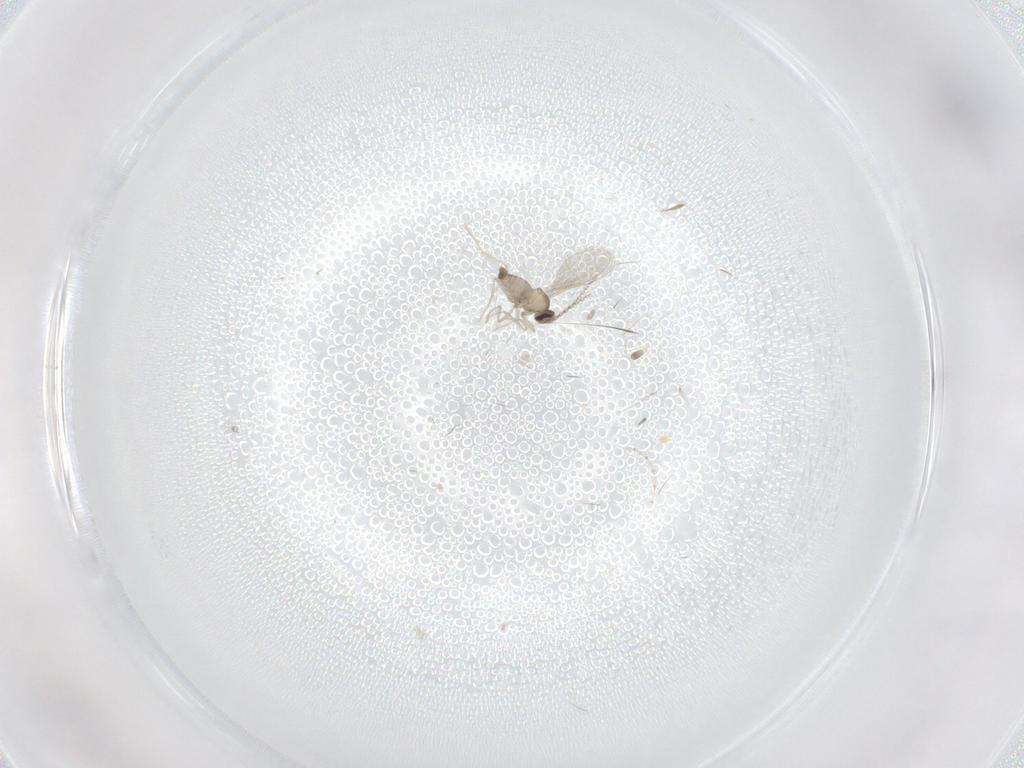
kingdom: Animalia
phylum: Arthropoda
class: Insecta
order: Diptera
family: Cecidomyiidae
